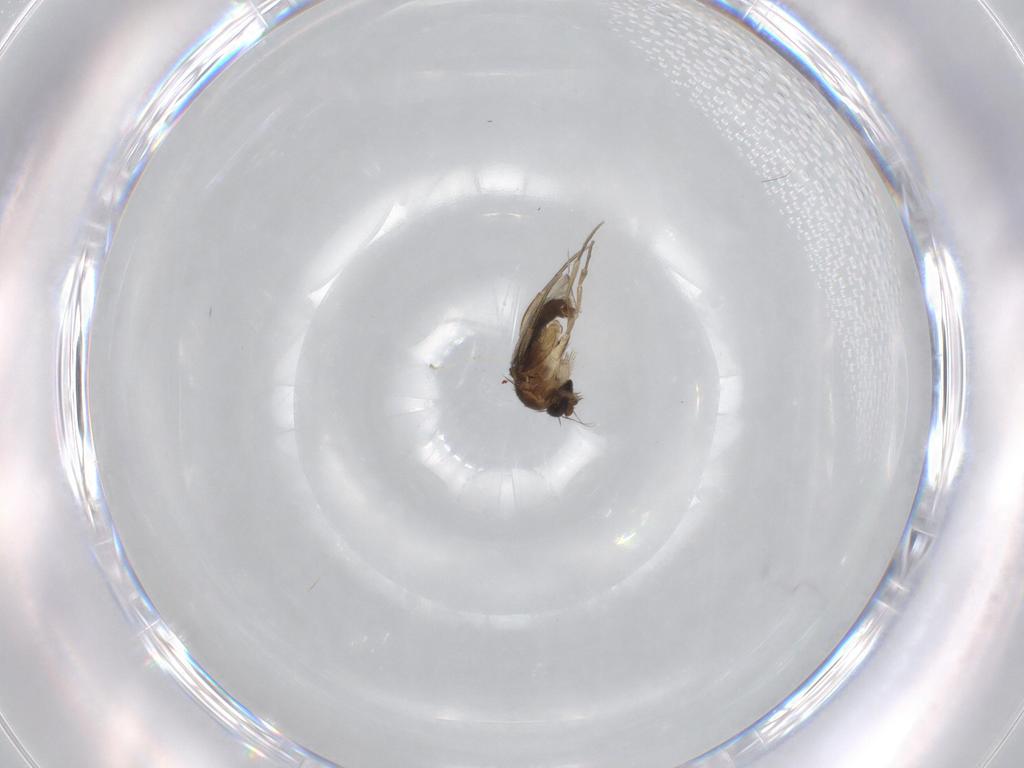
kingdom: Animalia
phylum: Arthropoda
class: Insecta
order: Diptera
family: Phoridae
